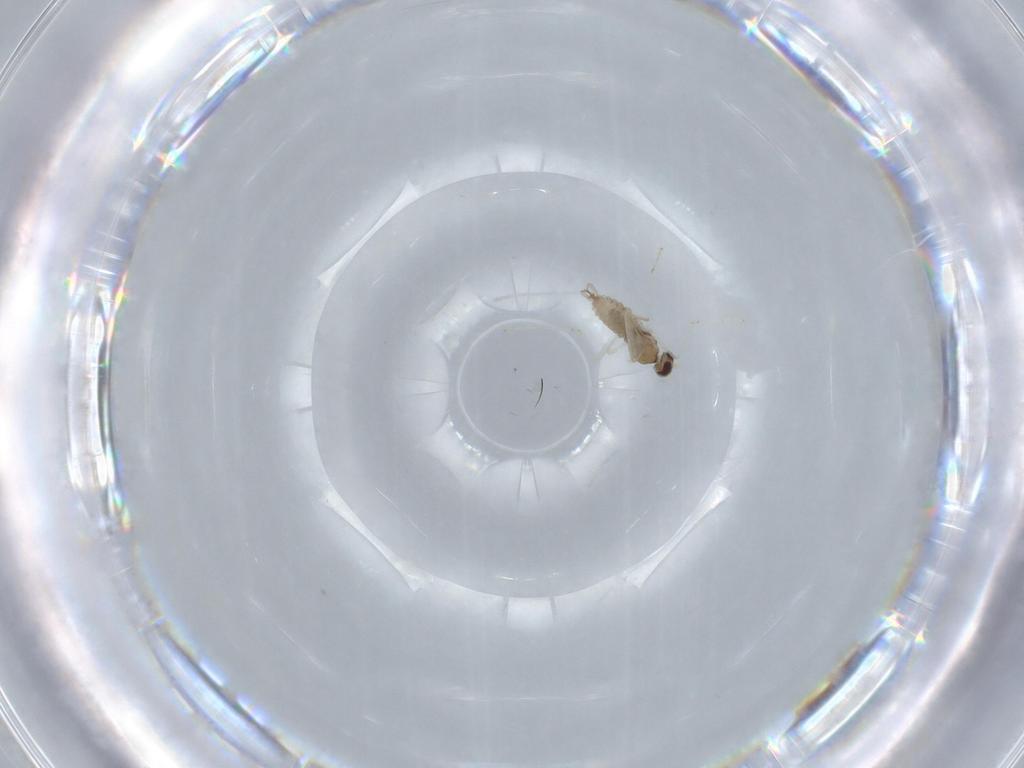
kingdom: Animalia
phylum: Arthropoda
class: Insecta
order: Diptera
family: Cecidomyiidae
